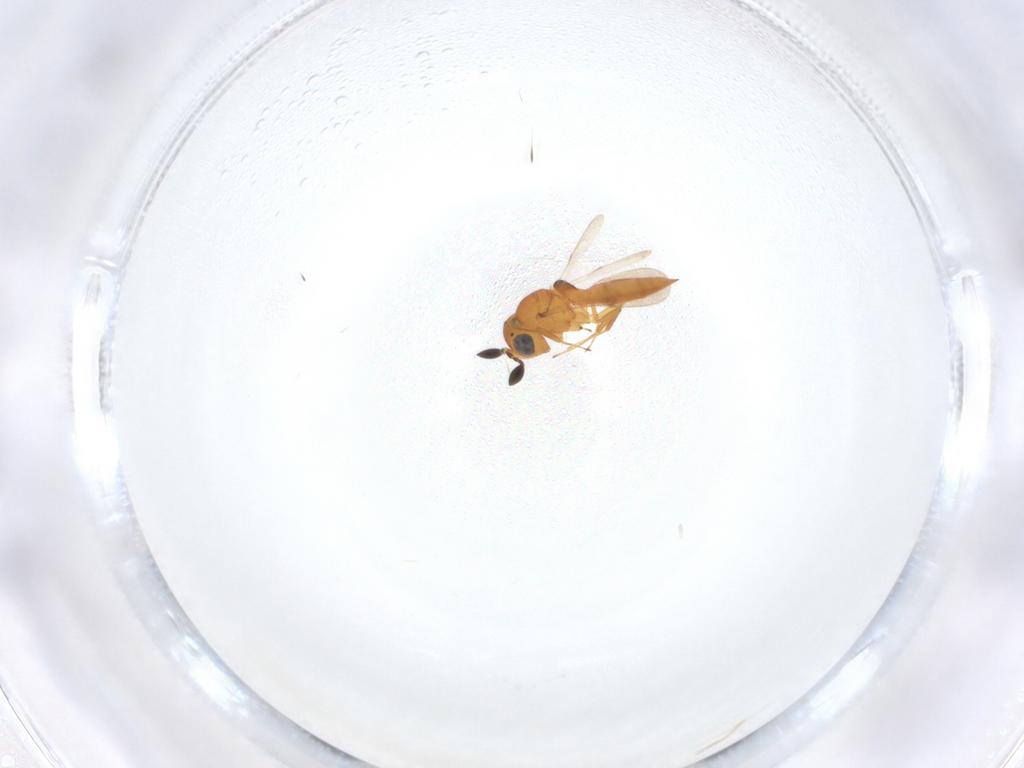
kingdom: Animalia
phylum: Arthropoda
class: Insecta
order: Hymenoptera
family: Scelionidae
